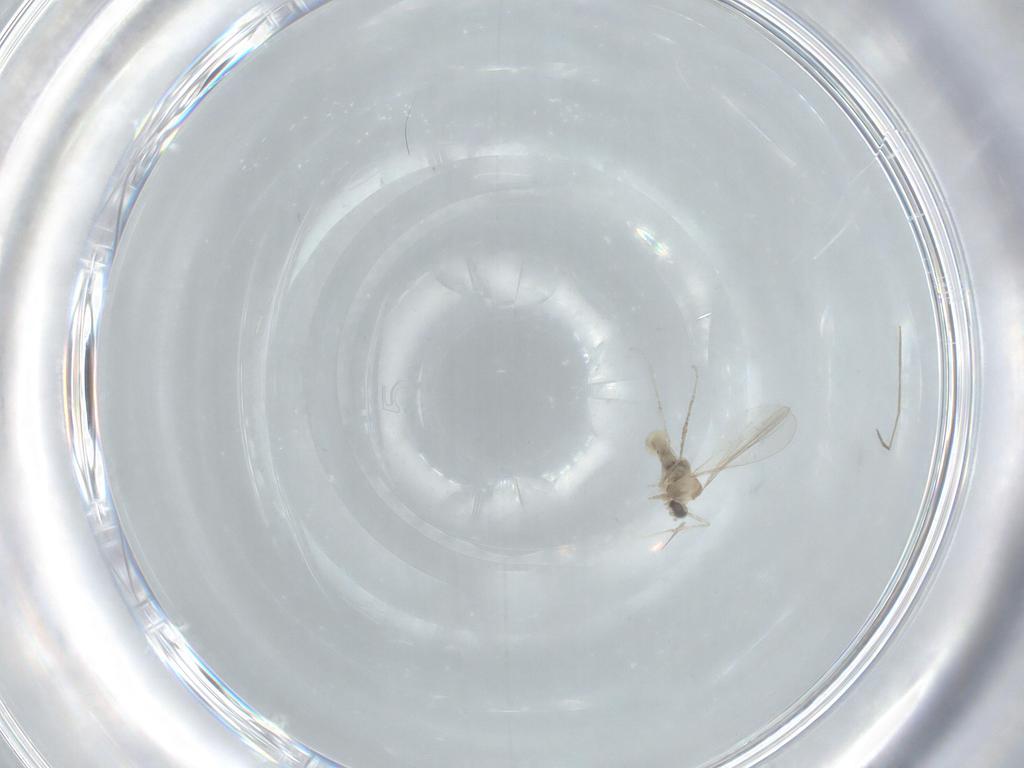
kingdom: Animalia
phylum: Arthropoda
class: Insecta
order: Diptera
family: Cecidomyiidae
